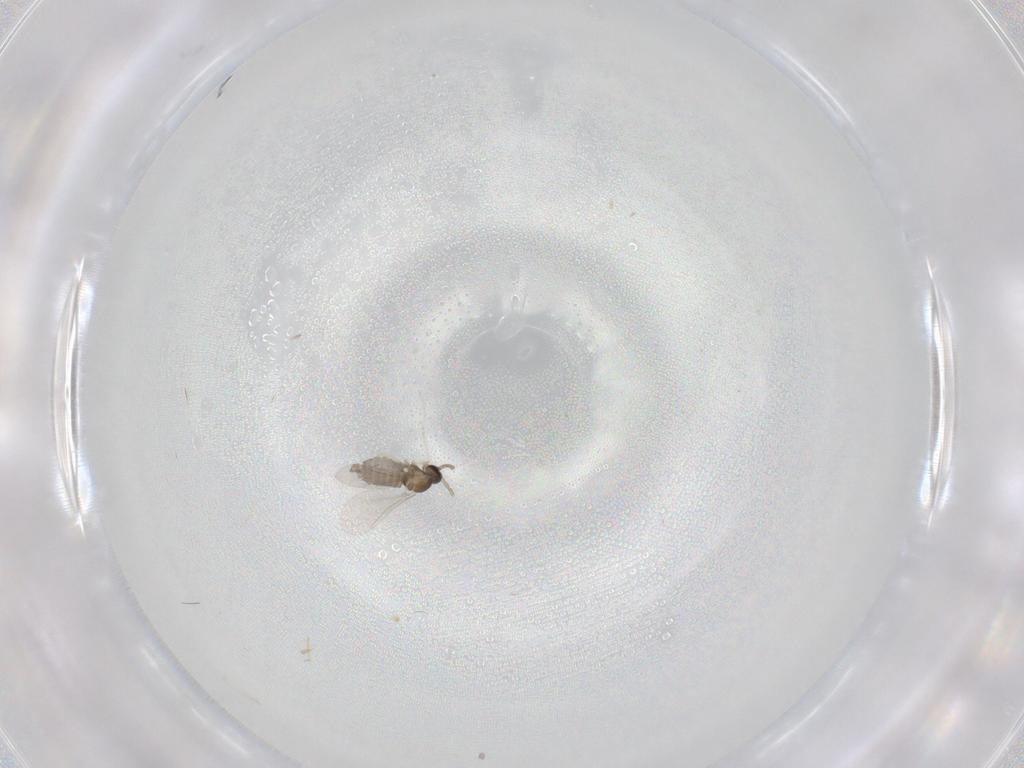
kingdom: Animalia
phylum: Arthropoda
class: Insecta
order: Diptera
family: Cecidomyiidae
